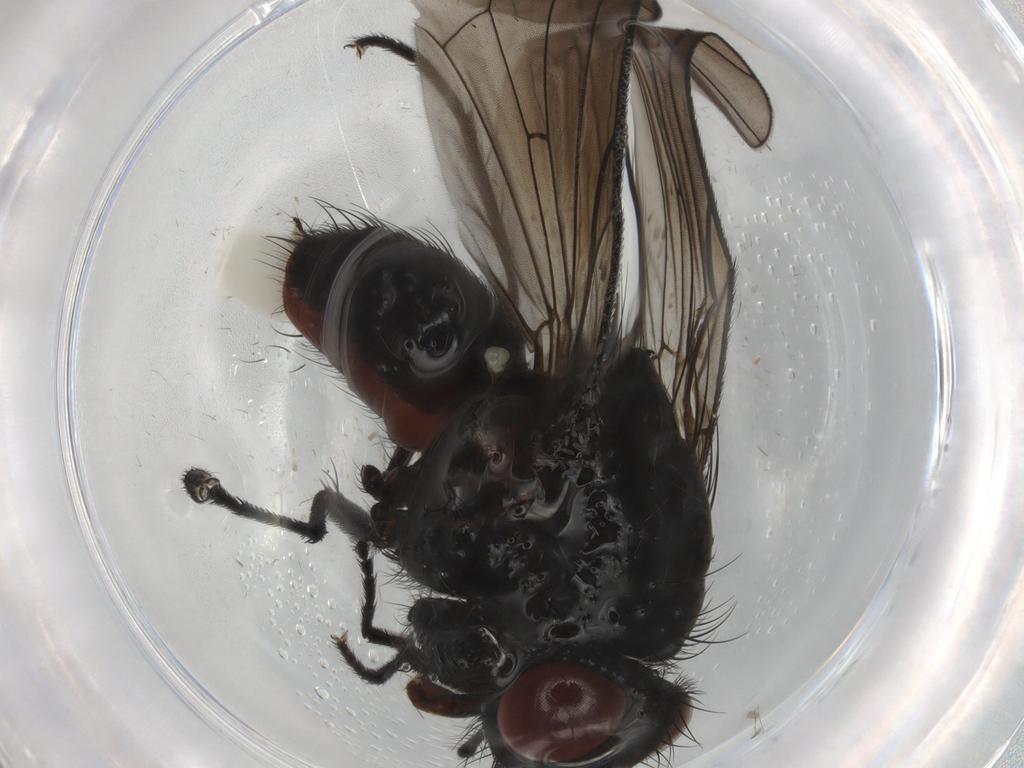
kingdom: Animalia
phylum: Arthropoda
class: Insecta
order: Diptera
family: Anthomyiidae
